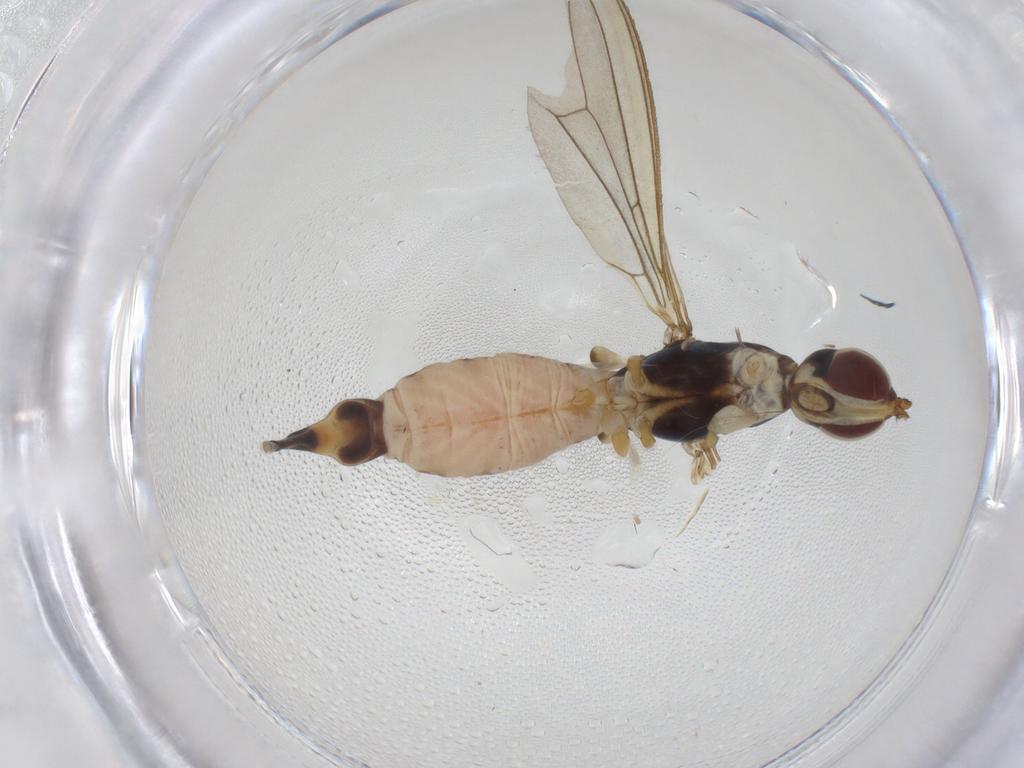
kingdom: Animalia
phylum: Arthropoda
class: Insecta
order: Diptera
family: Micropezidae
